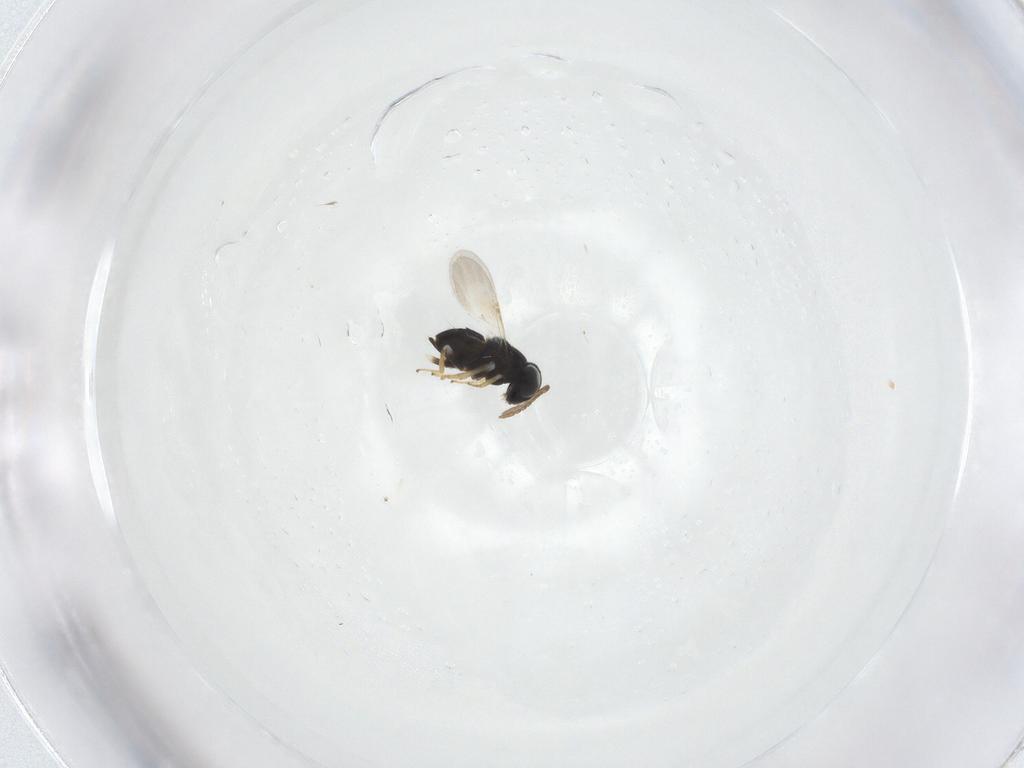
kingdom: Animalia
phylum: Arthropoda
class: Insecta
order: Hymenoptera
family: Encyrtidae
